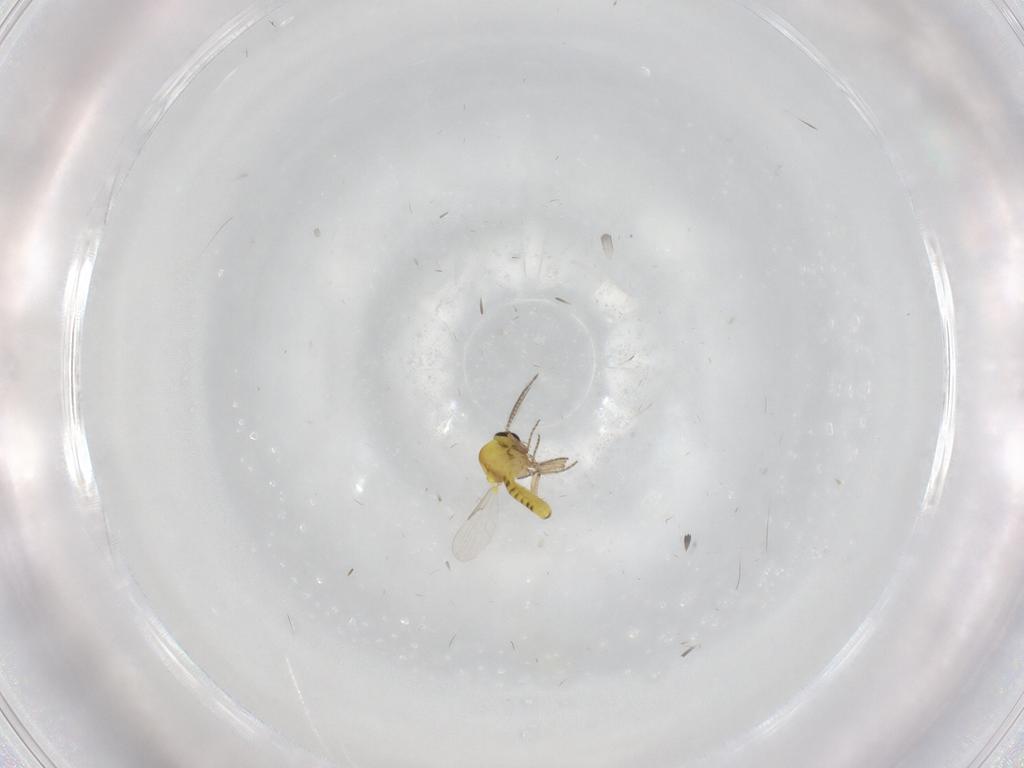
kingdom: Animalia
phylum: Arthropoda
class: Insecta
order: Diptera
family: Ceratopogonidae
